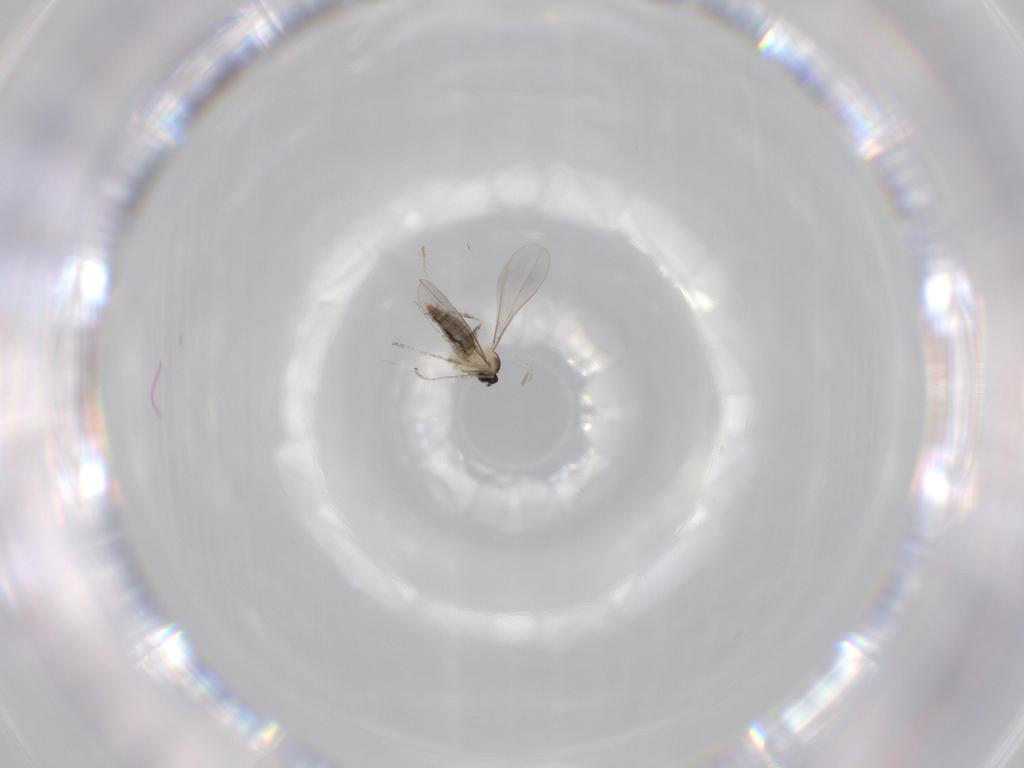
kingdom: Animalia
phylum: Arthropoda
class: Insecta
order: Diptera
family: Cecidomyiidae
